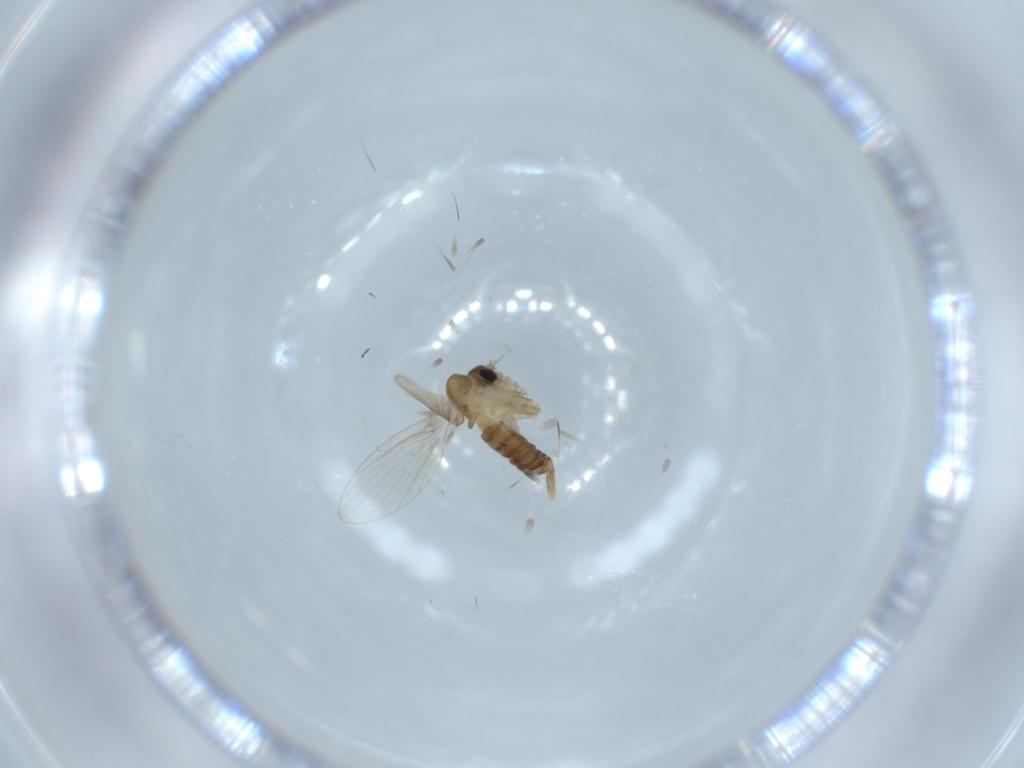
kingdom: Animalia
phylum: Arthropoda
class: Insecta
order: Diptera
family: Psychodidae
